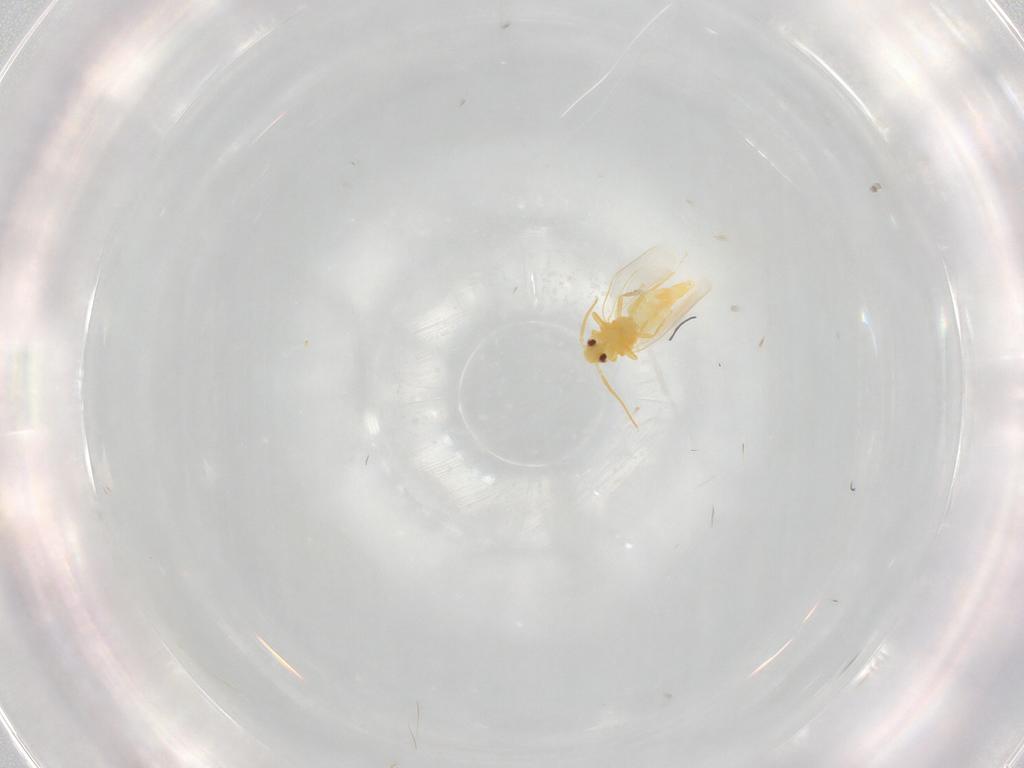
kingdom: Animalia
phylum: Arthropoda
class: Insecta
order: Hemiptera
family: Aleyrodidae
